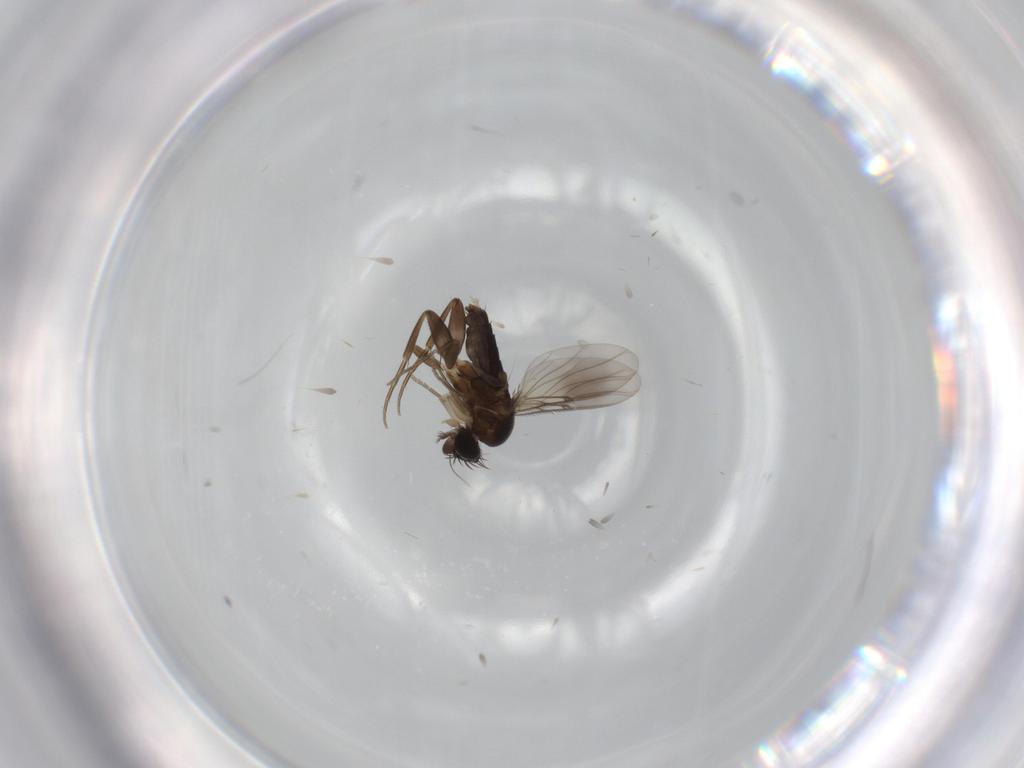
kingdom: Animalia
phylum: Arthropoda
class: Insecta
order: Diptera
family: Phoridae
